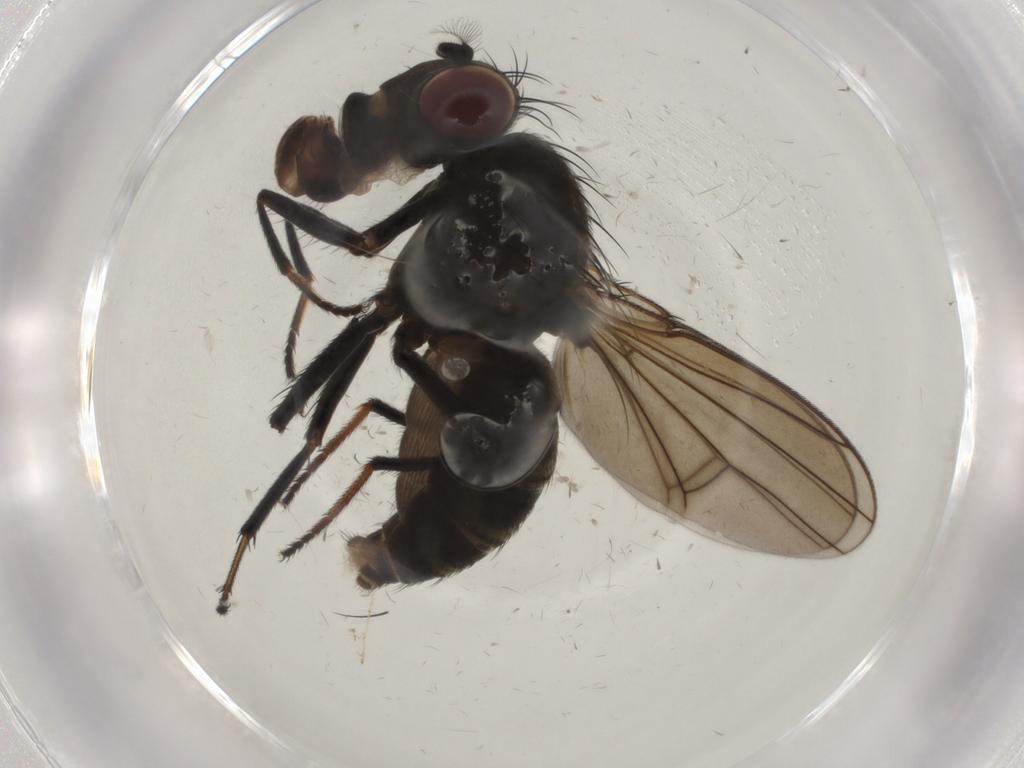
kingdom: Animalia
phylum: Arthropoda
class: Insecta
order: Diptera
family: Ephydridae
